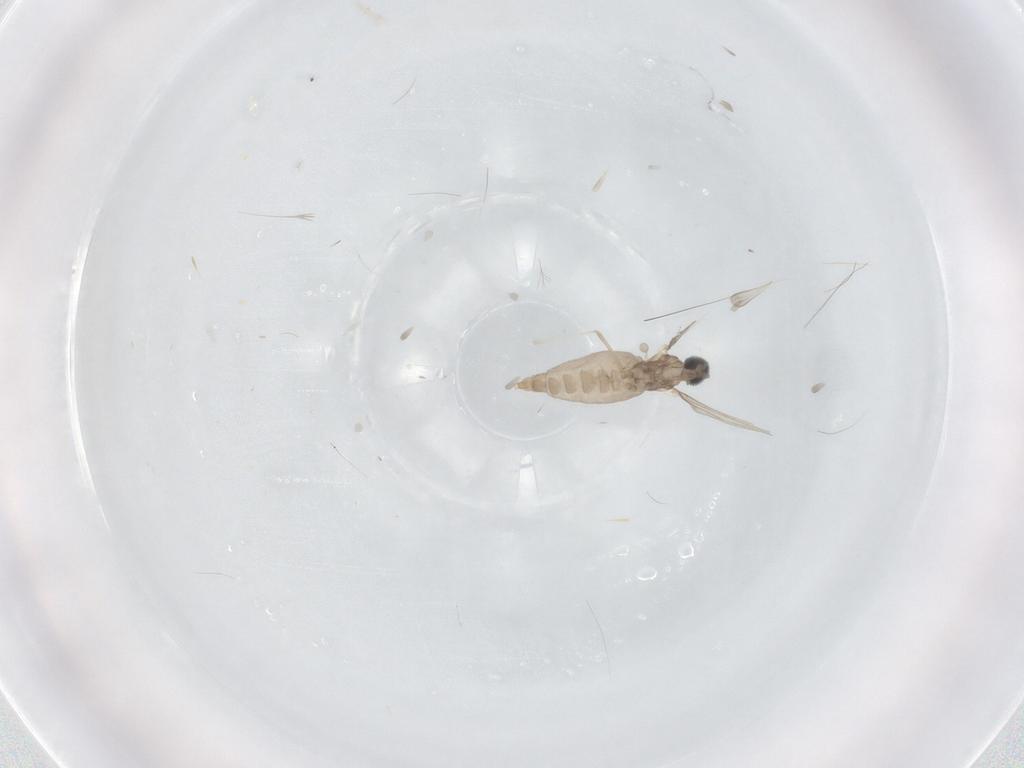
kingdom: Animalia
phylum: Arthropoda
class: Insecta
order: Diptera
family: Cecidomyiidae
